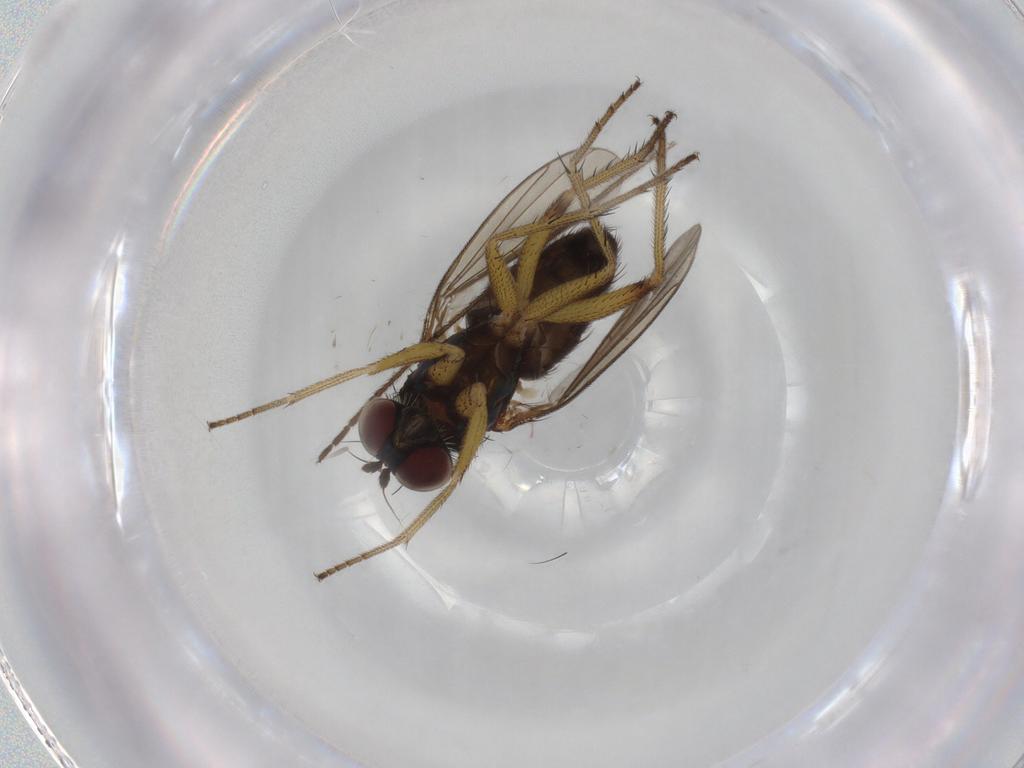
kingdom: Animalia
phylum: Arthropoda
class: Insecta
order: Diptera
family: Dolichopodidae
